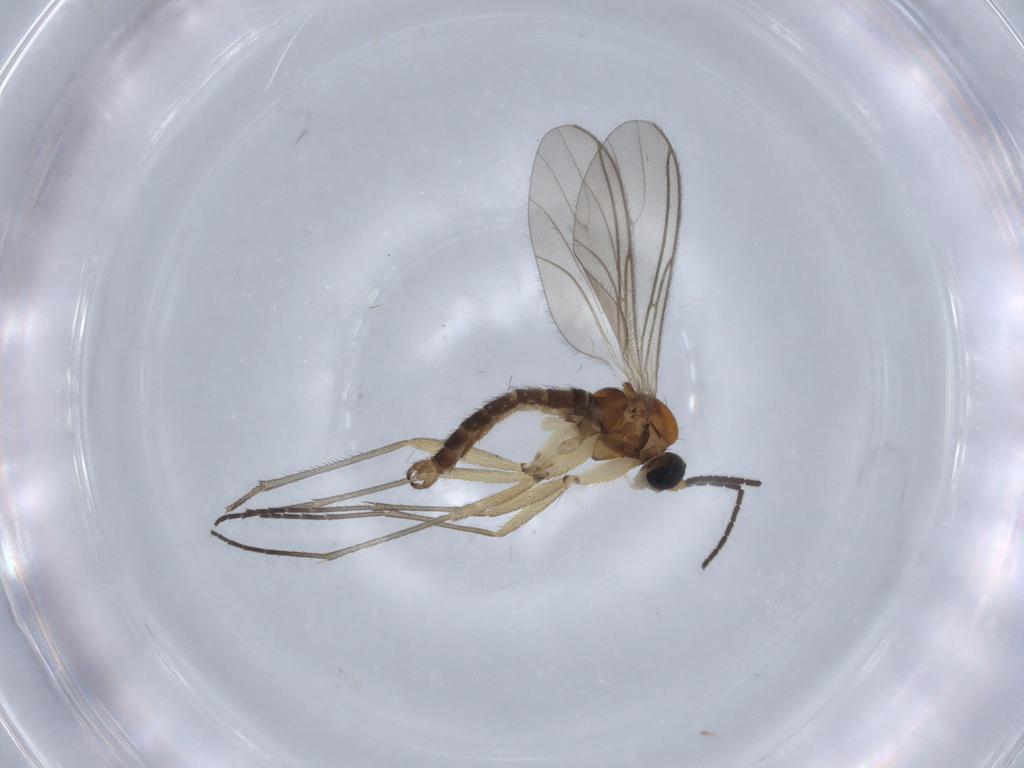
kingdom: Animalia
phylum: Arthropoda
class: Insecta
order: Diptera
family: Sciaridae
